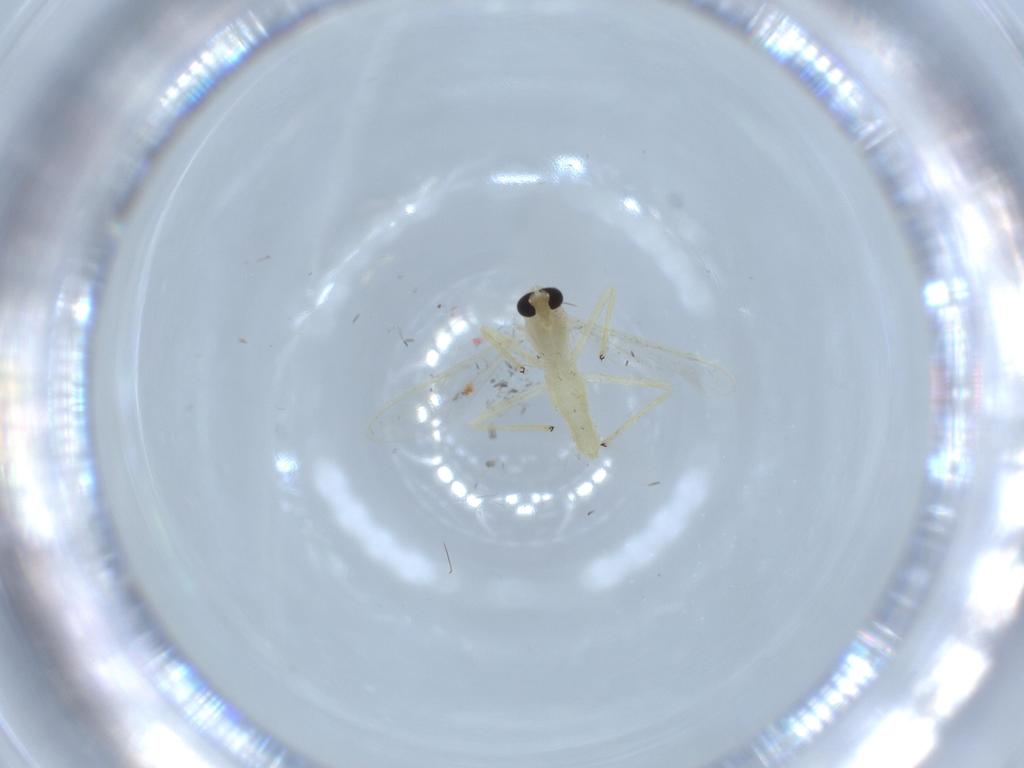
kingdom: Animalia
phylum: Arthropoda
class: Insecta
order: Diptera
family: Chironomidae
